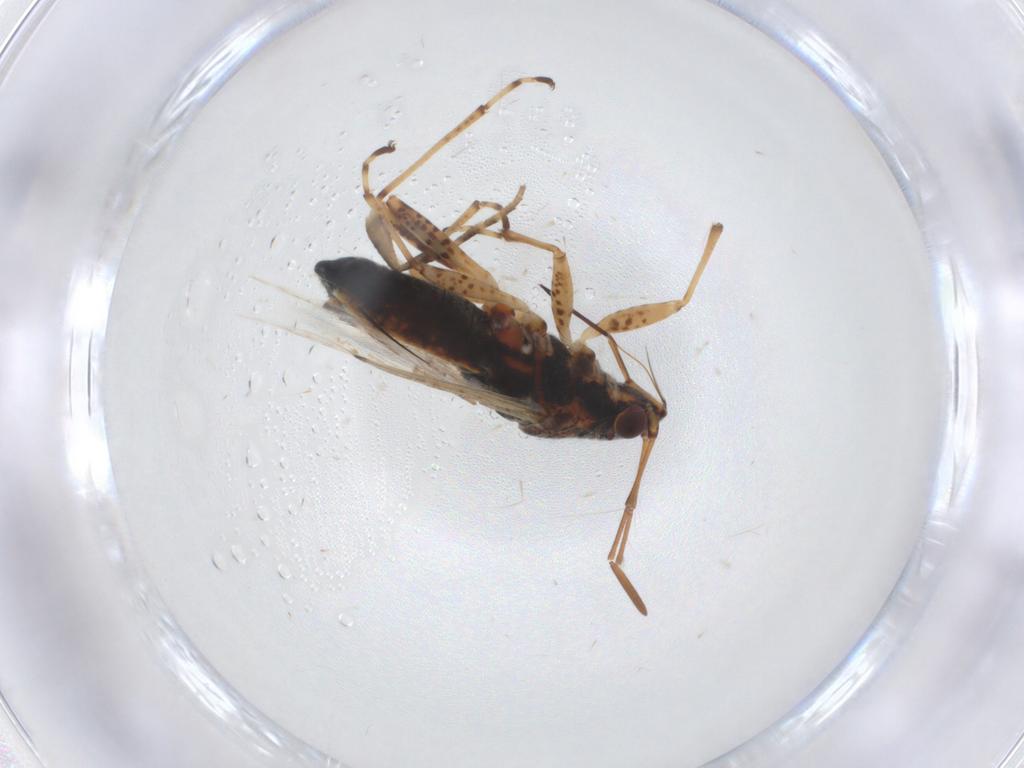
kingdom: Animalia
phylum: Arthropoda
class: Insecta
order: Hemiptera
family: Lygaeidae
